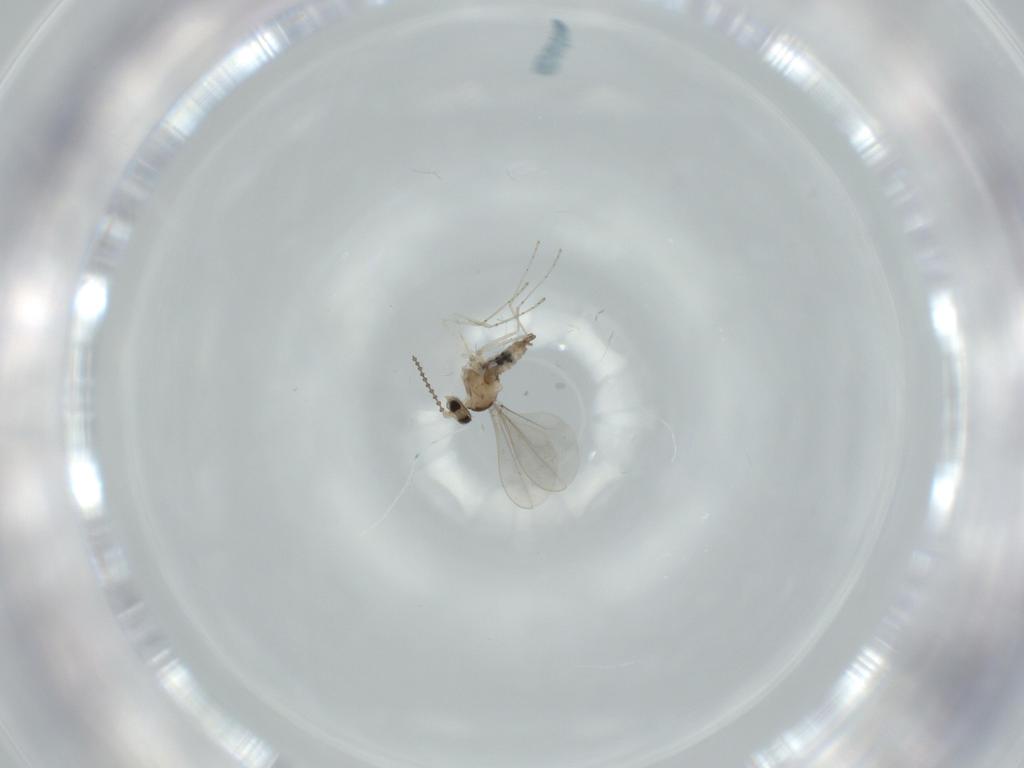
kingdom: Animalia
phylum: Arthropoda
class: Insecta
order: Diptera
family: Cecidomyiidae
